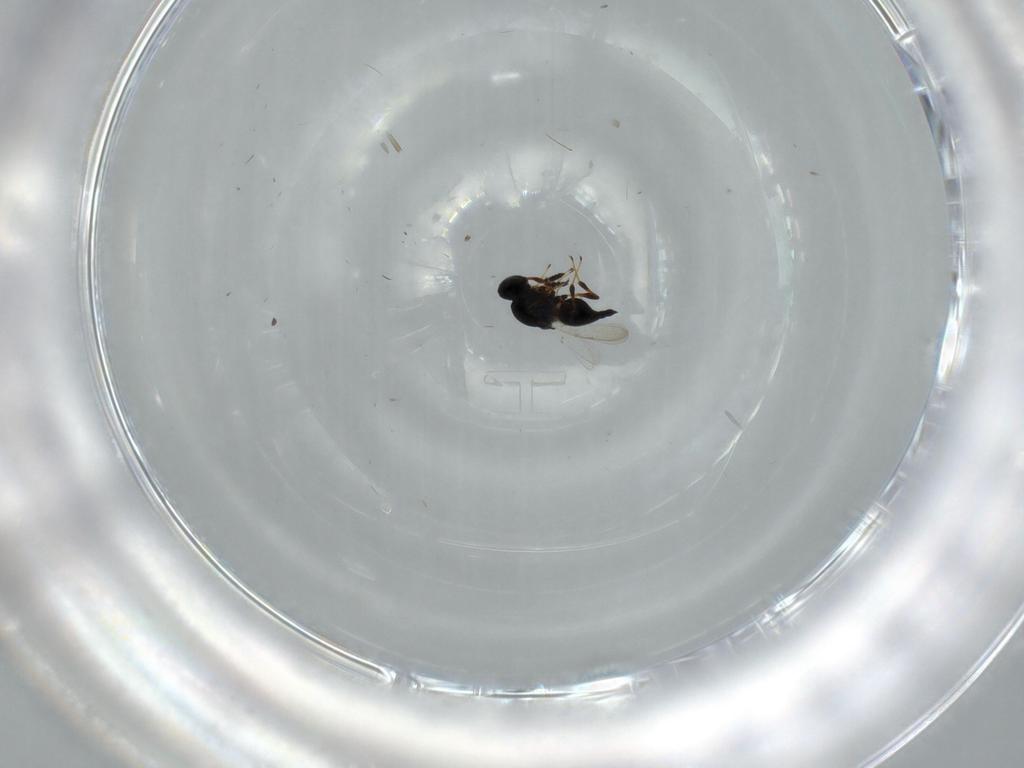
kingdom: Animalia
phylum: Arthropoda
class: Insecta
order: Hymenoptera
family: Platygastridae
